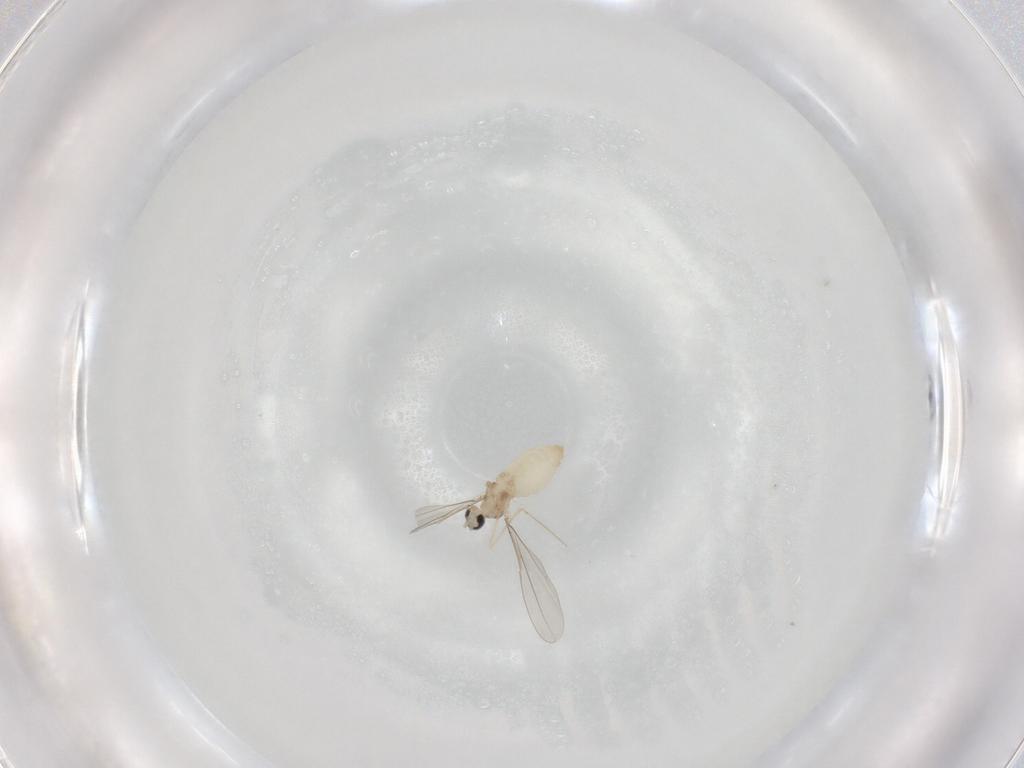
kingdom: Animalia
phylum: Arthropoda
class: Insecta
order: Diptera
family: Cecidomyiidae
